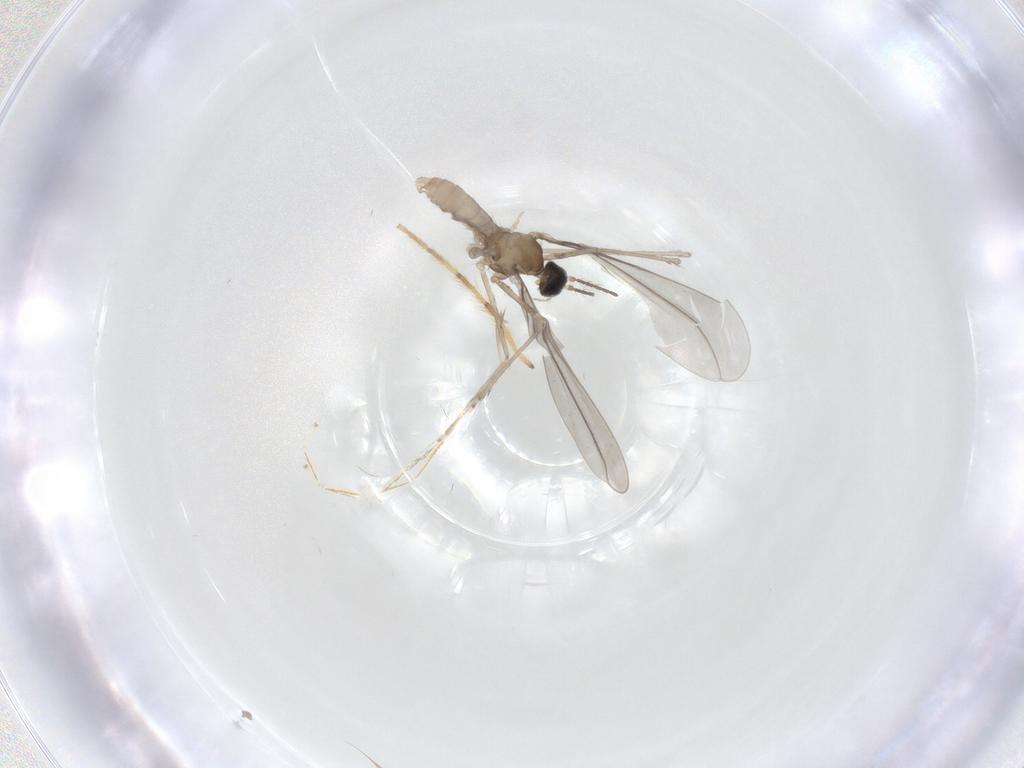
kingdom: Animalia
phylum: Arthropoda
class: Insecta
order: Diptera
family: Cecidomyiidae
